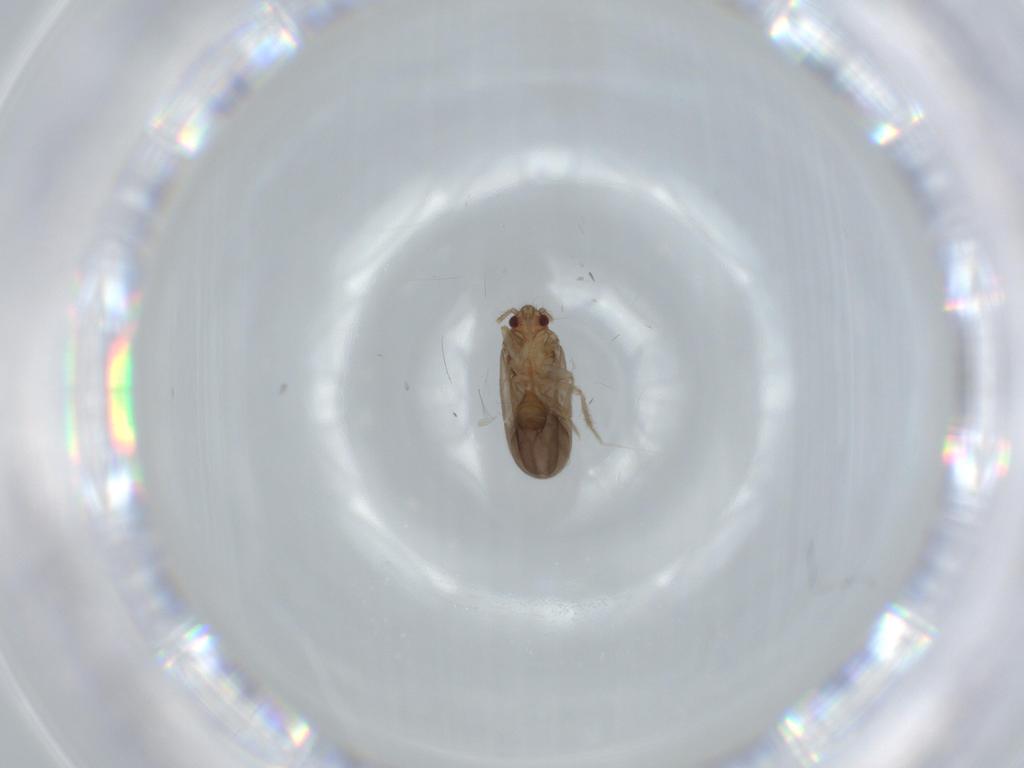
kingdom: Animalia
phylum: Arthropoda
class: Insecta
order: Hemiptera
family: Ceratocombidae
